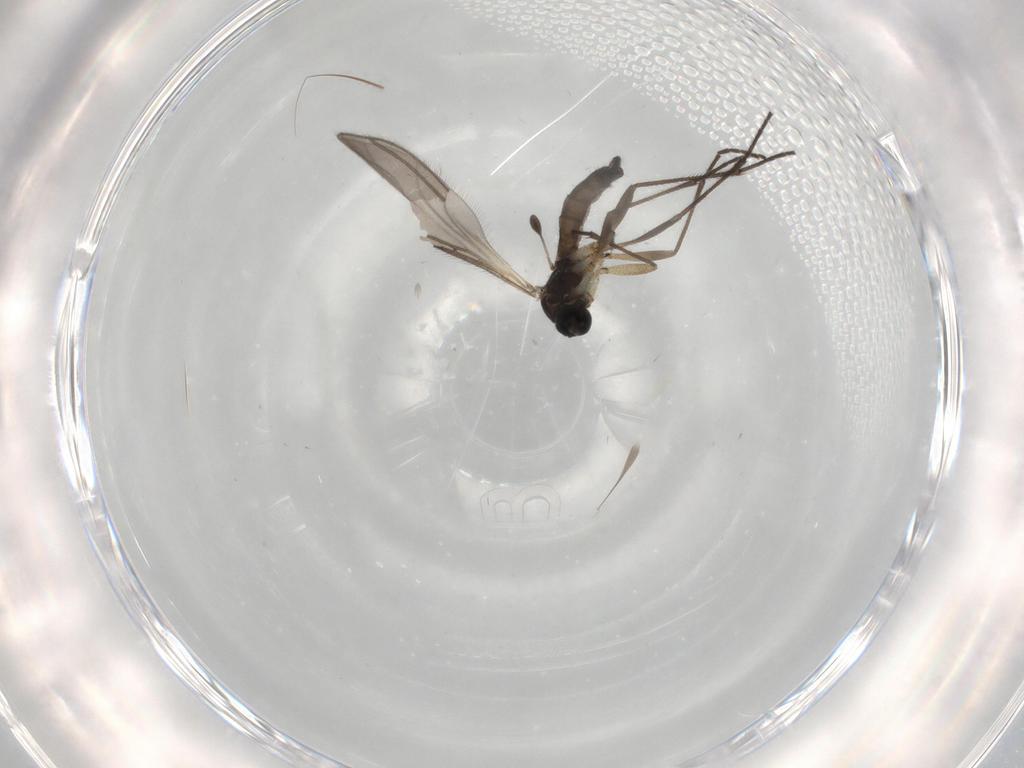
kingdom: Animalia
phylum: Arthropoda
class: Insecta
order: Diptera
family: Sciaridae
